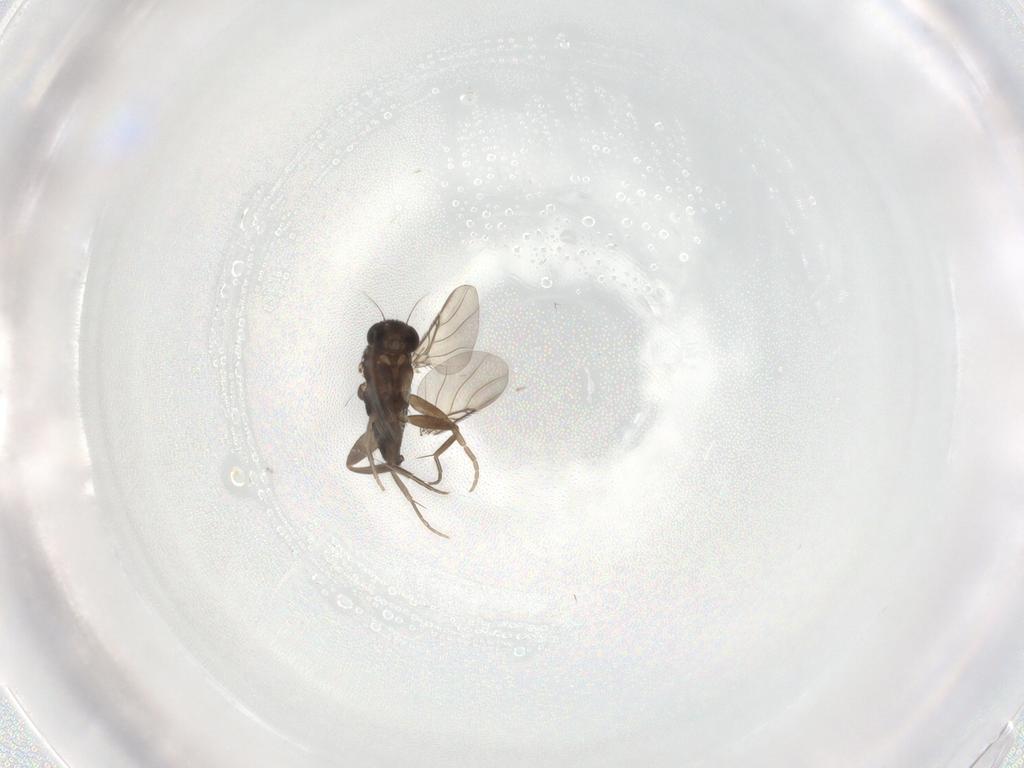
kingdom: Animalia
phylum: Arthropoda
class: Insecta
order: Diptera
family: Phoridae
